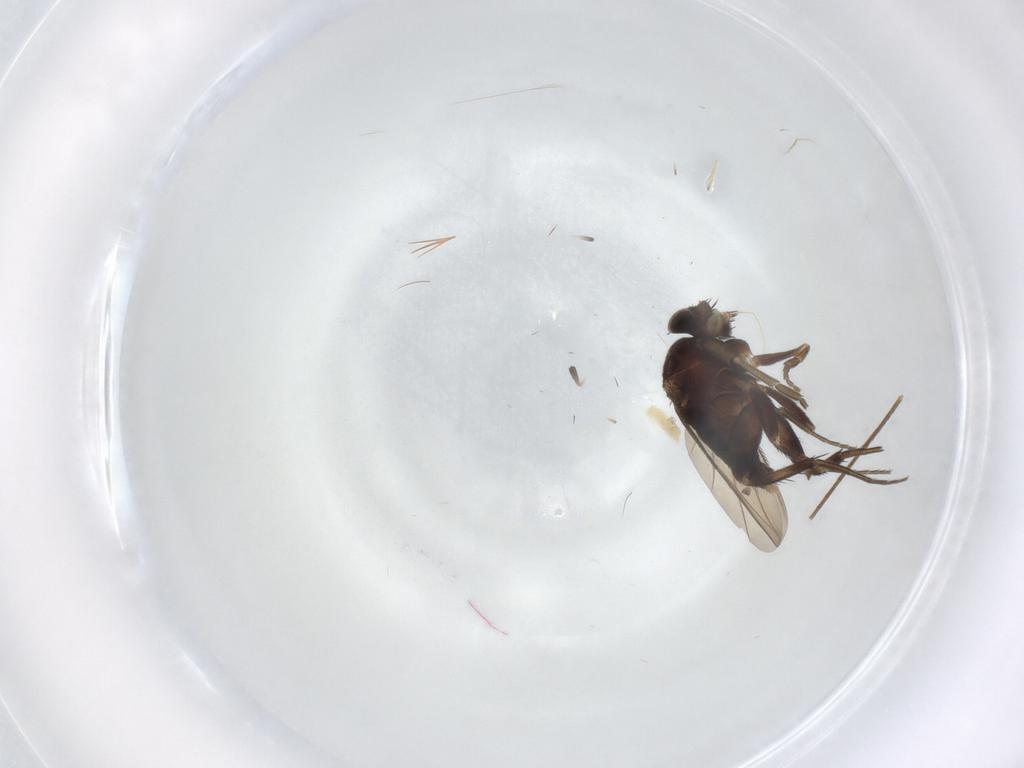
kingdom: Animalia
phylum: Arthropoda
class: Insecta
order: Diptera
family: Phoridae
